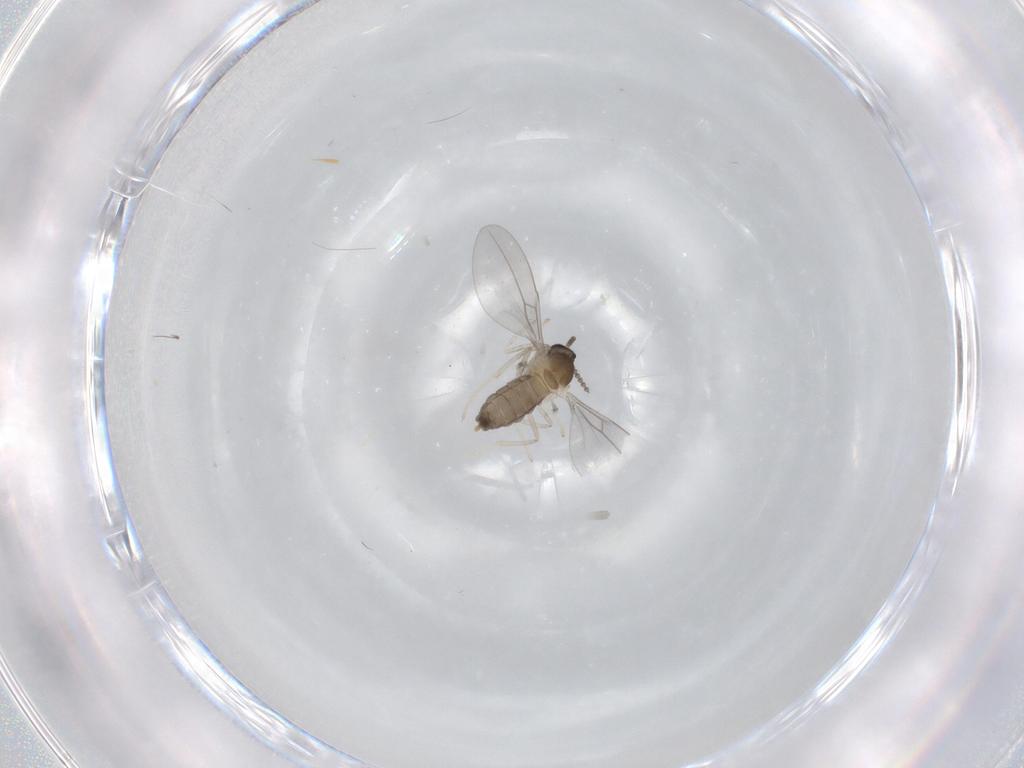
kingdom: Animalia
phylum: Arthropoda
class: Insecta
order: Diptera
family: Cecidomyiidae
